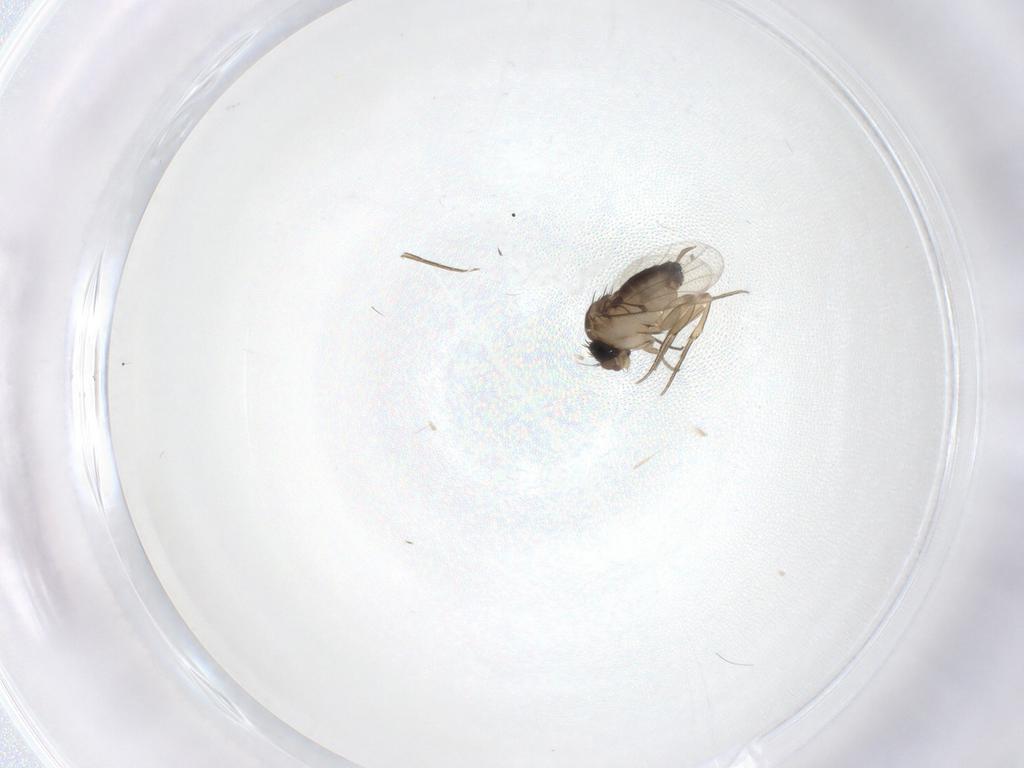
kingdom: Animalia
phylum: Arthropoda
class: Insecta
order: Diptera
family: Phoridae
